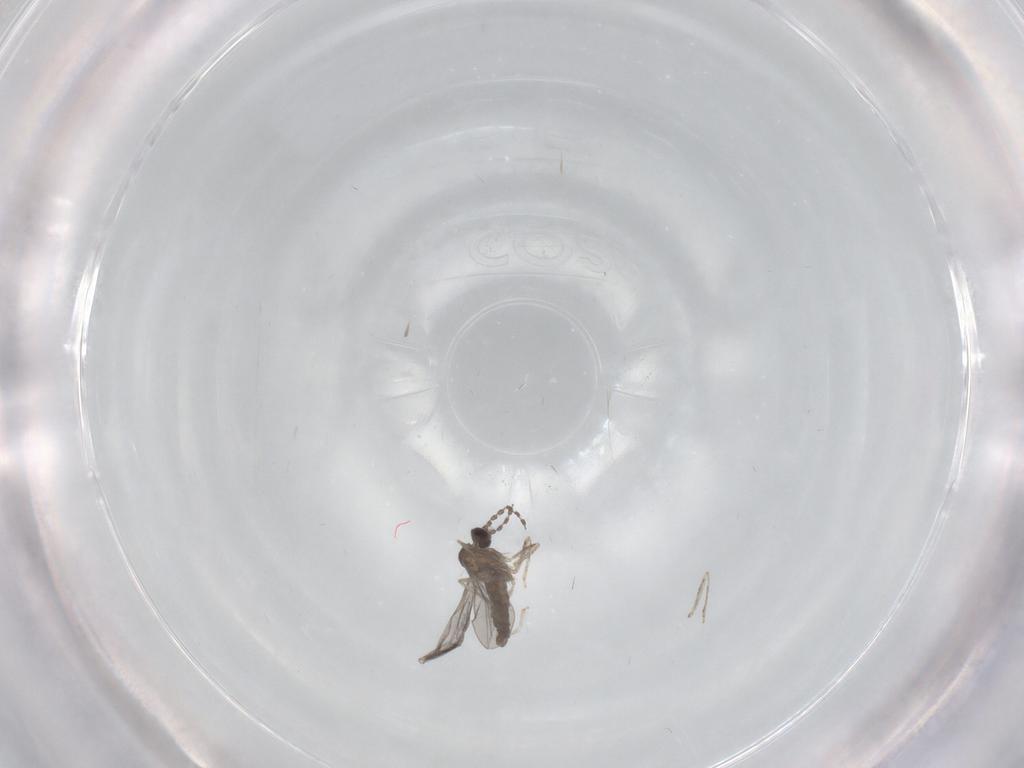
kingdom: Animalia
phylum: Arthropoda
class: Insecta
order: Diptera
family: Cecidomyiidae
